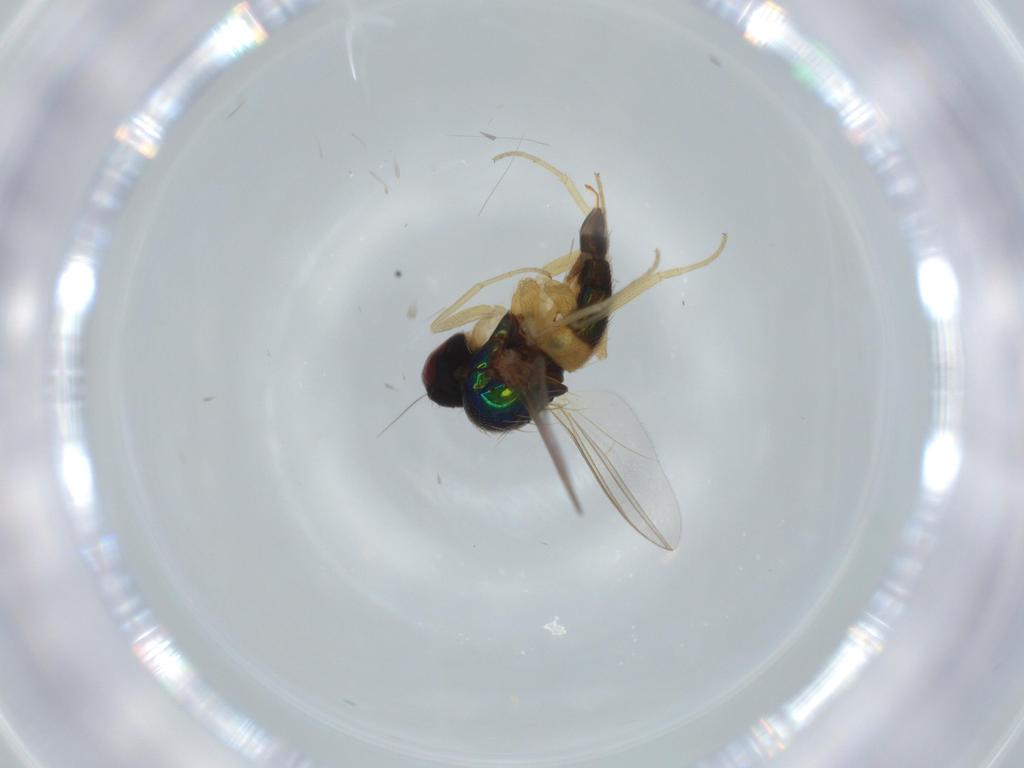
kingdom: Animalia
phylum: Arthropoda
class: Insecta
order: Diptera
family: Dolichopodidae
